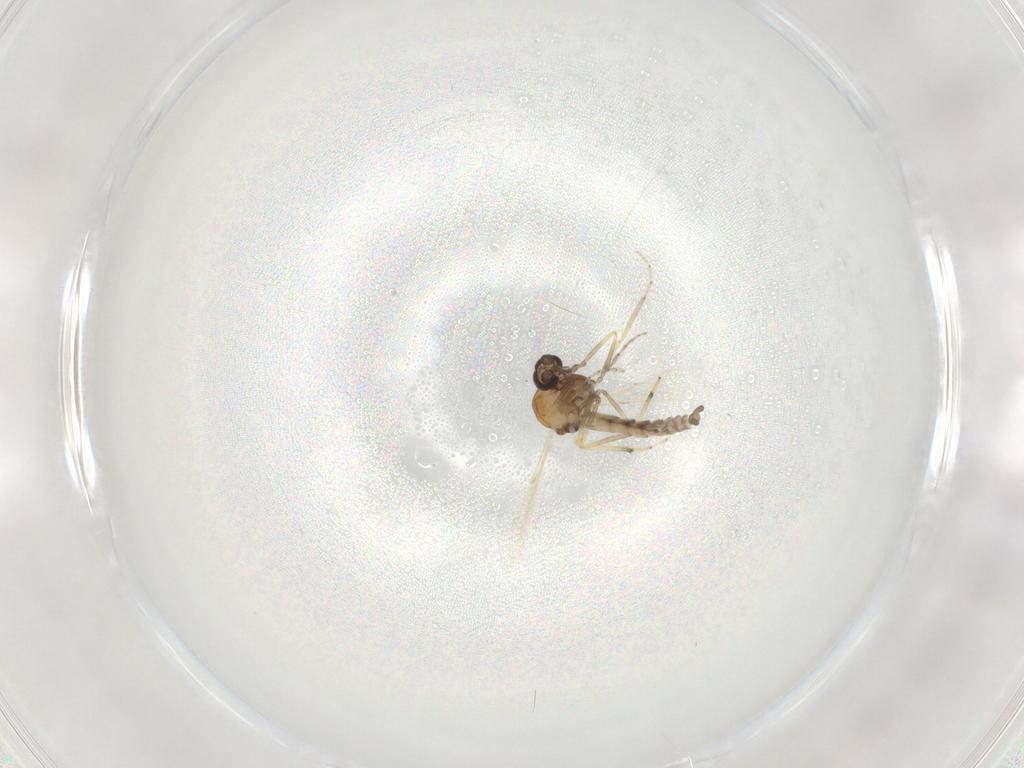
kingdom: Animalia
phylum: Arthropoda
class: Insecta
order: Diptera
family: Ceratopogonidae
